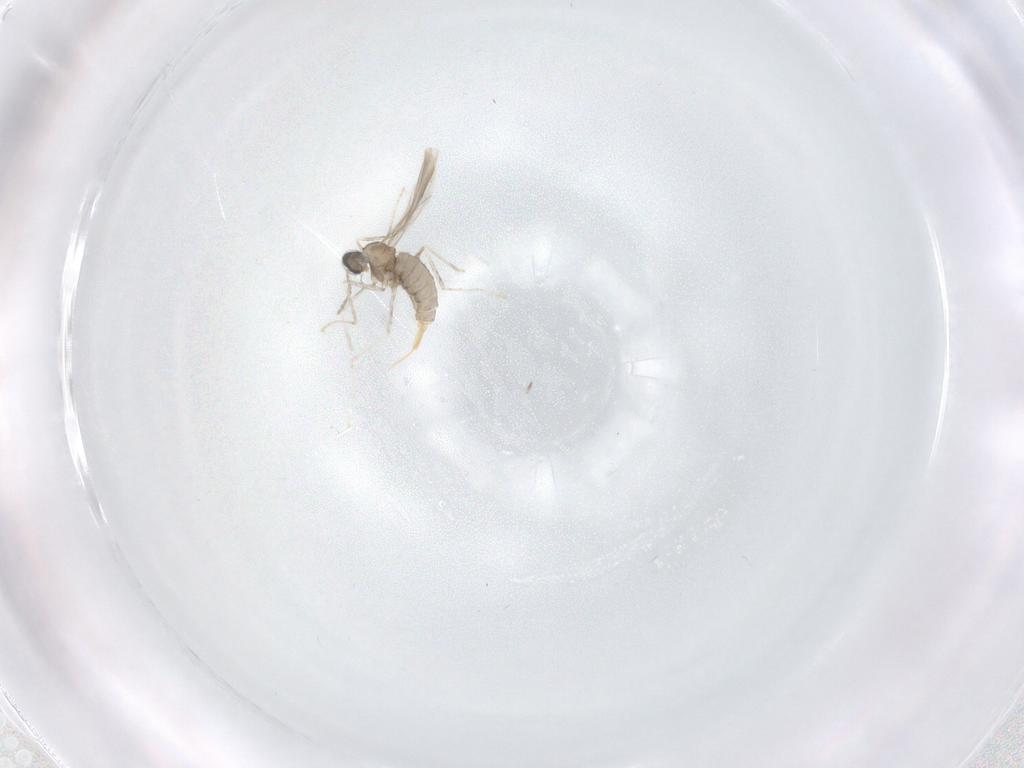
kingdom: Animalia
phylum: Arthropoda
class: Insecta
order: Diptera
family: Cecidomyiidae
